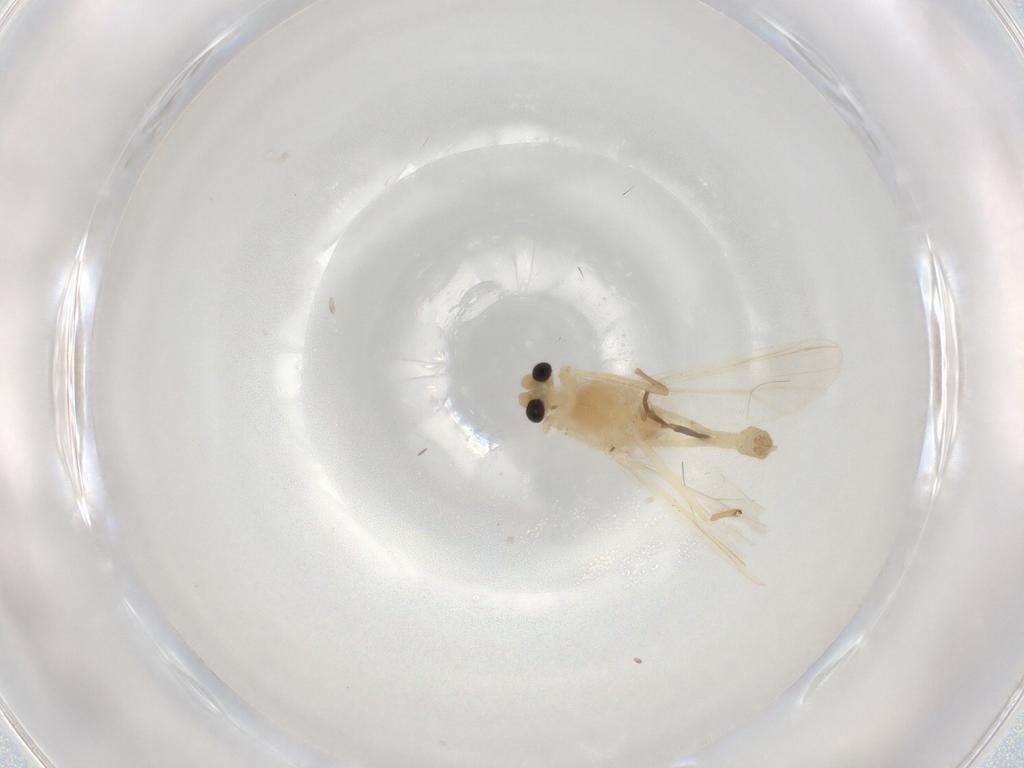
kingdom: Animalia
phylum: Arthropoda
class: Insecta
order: Diptera
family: Sciaridae
